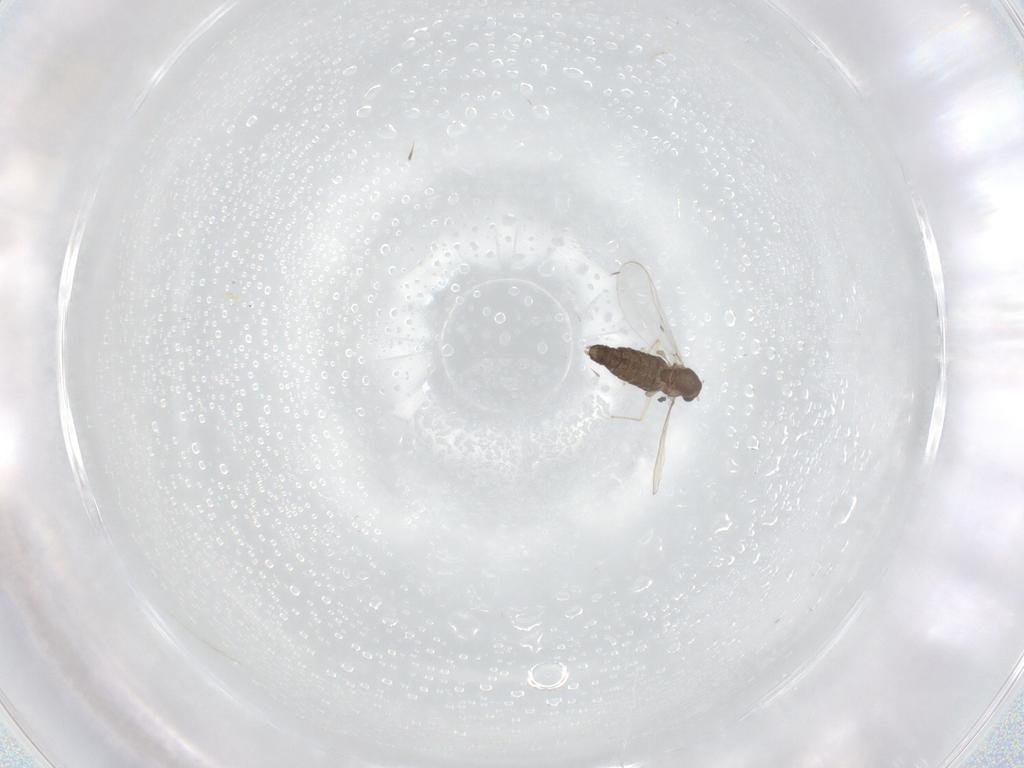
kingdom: Animalia
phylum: Arthropoda
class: Insecta
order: Diptera
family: Chironomidae
